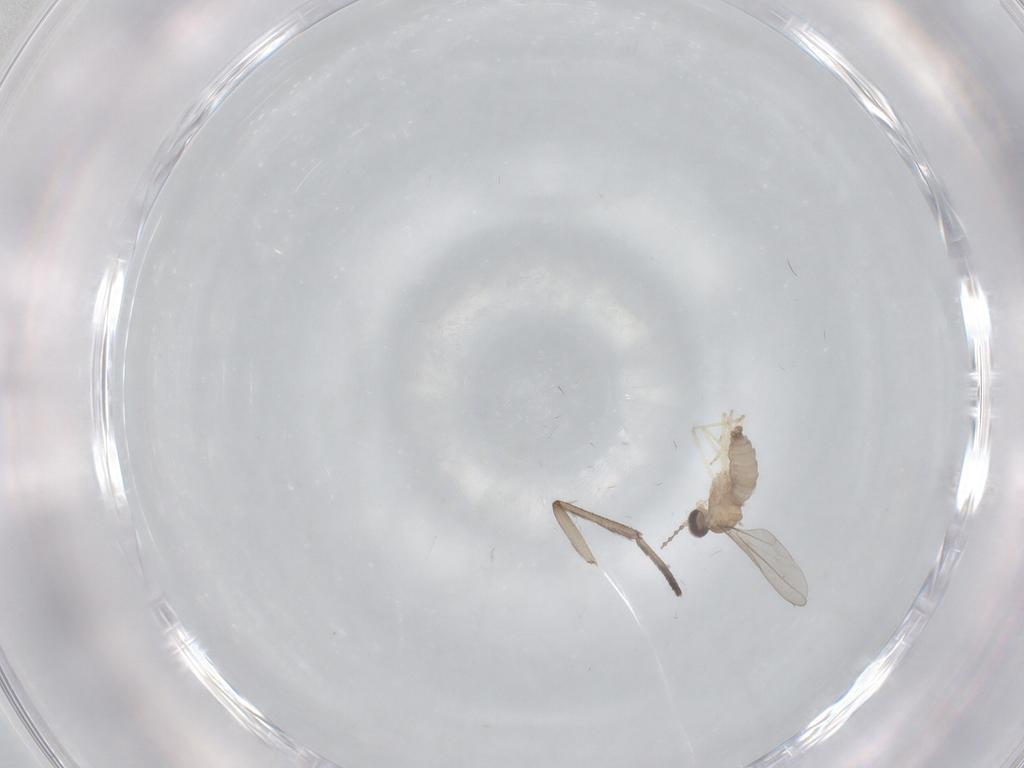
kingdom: Animalia
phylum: Arthropoda
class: Insecta
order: Diptera
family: Cecidomyiidae
